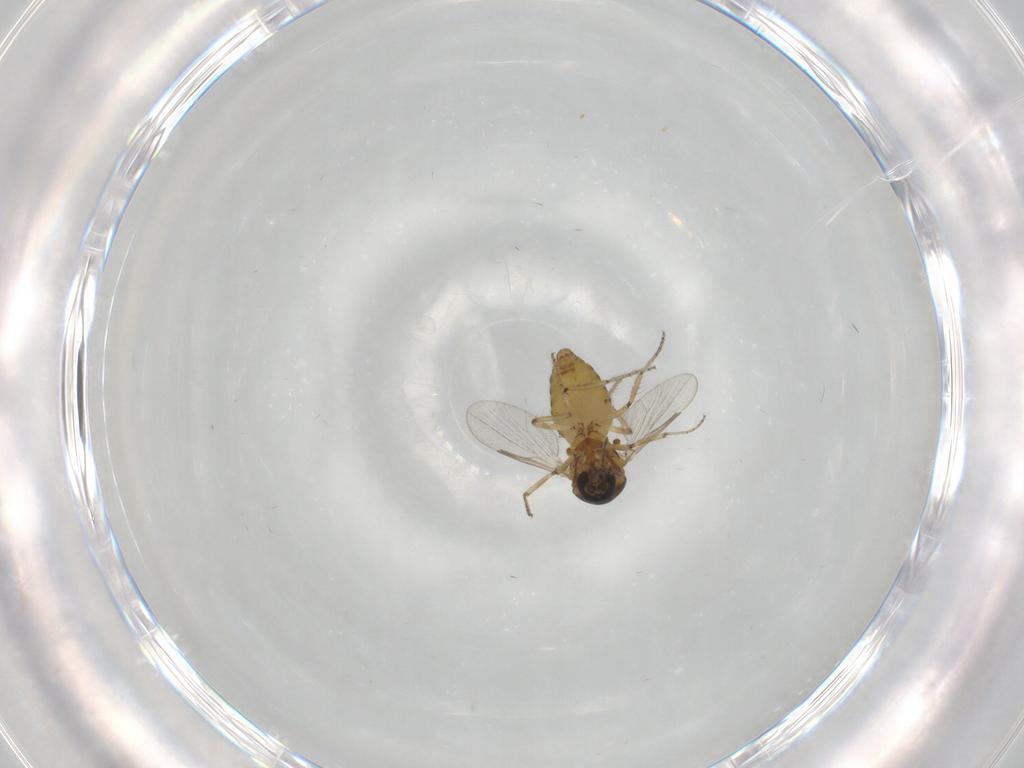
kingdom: Animalia
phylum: Arthropoda
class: Insecta
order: Diptera
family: Ceratopogonidae
